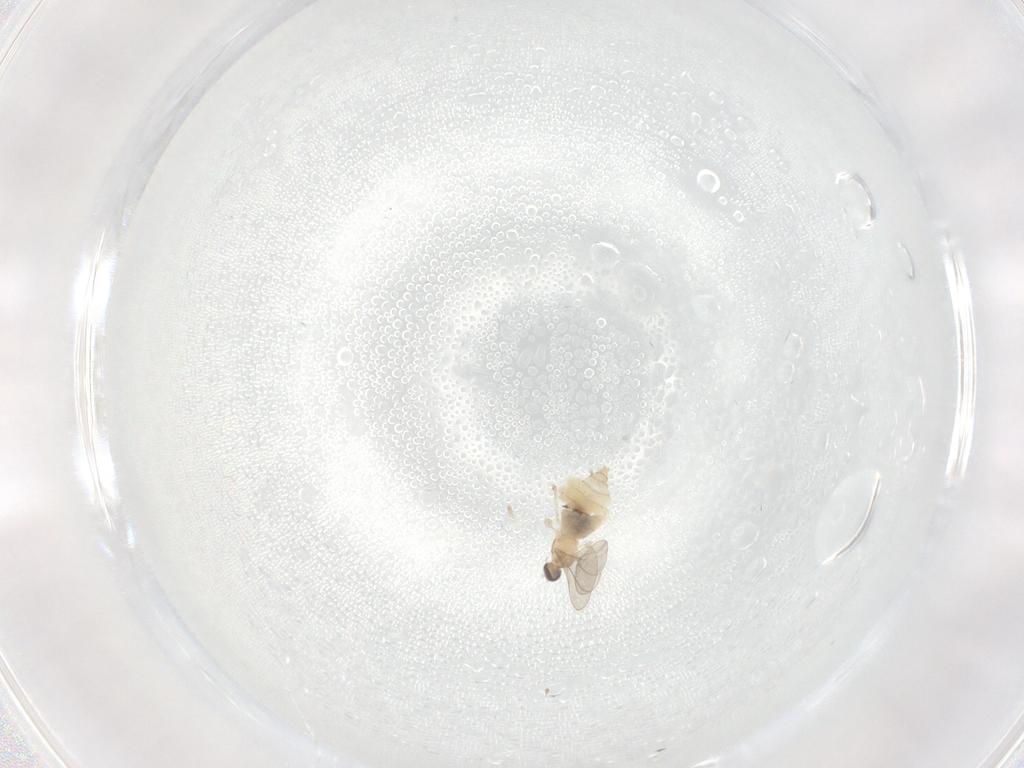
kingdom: Animalia
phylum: Arthropoda
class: Insecta
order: Diptera
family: Cecidomyiidae
